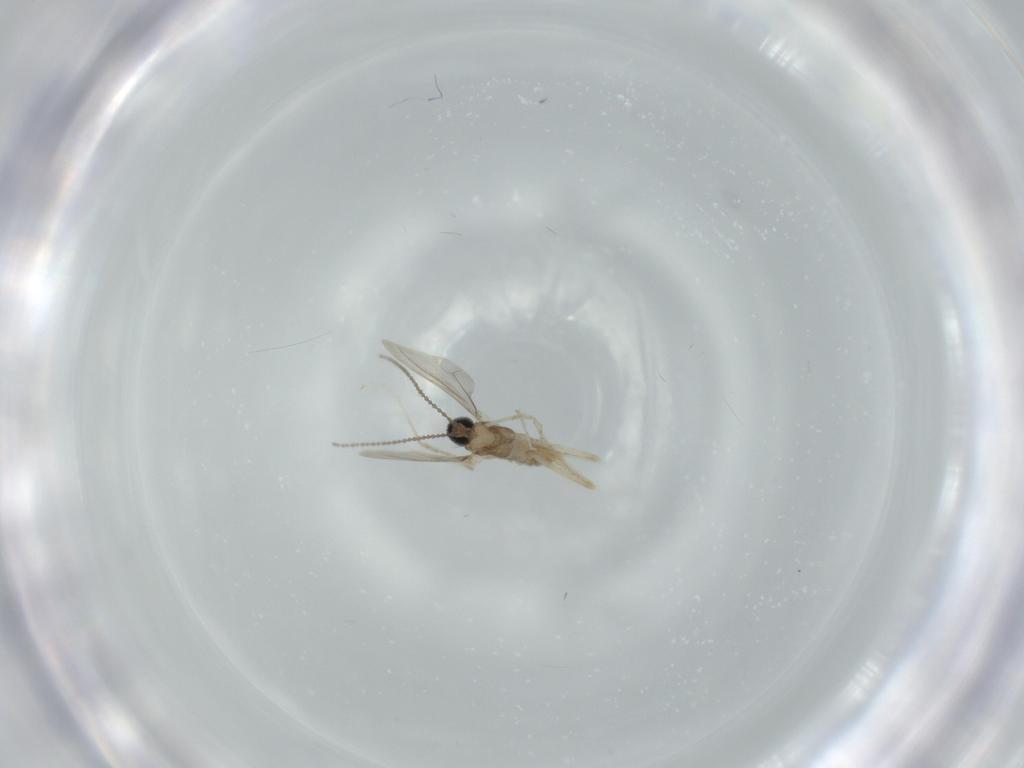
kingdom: Animalia
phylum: Arthropoda
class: Insecta
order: Diptera
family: Cecidomyiidae
